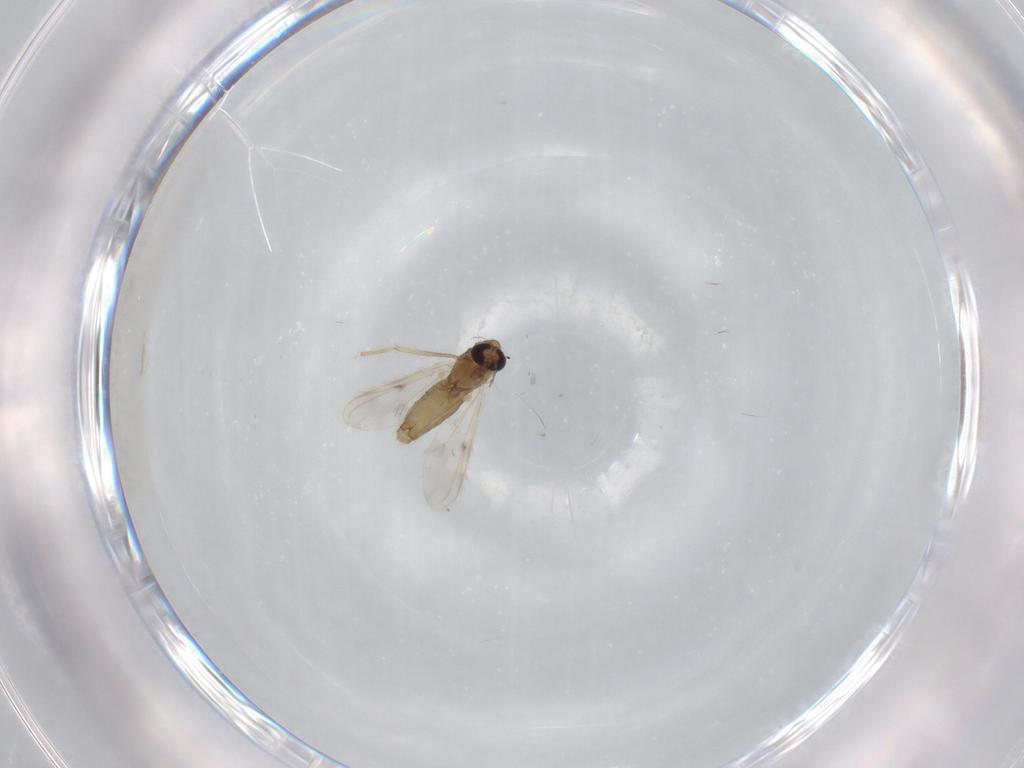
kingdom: Animalia
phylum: Arthropoda
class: Insecta
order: Diptera
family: Chironomidae
